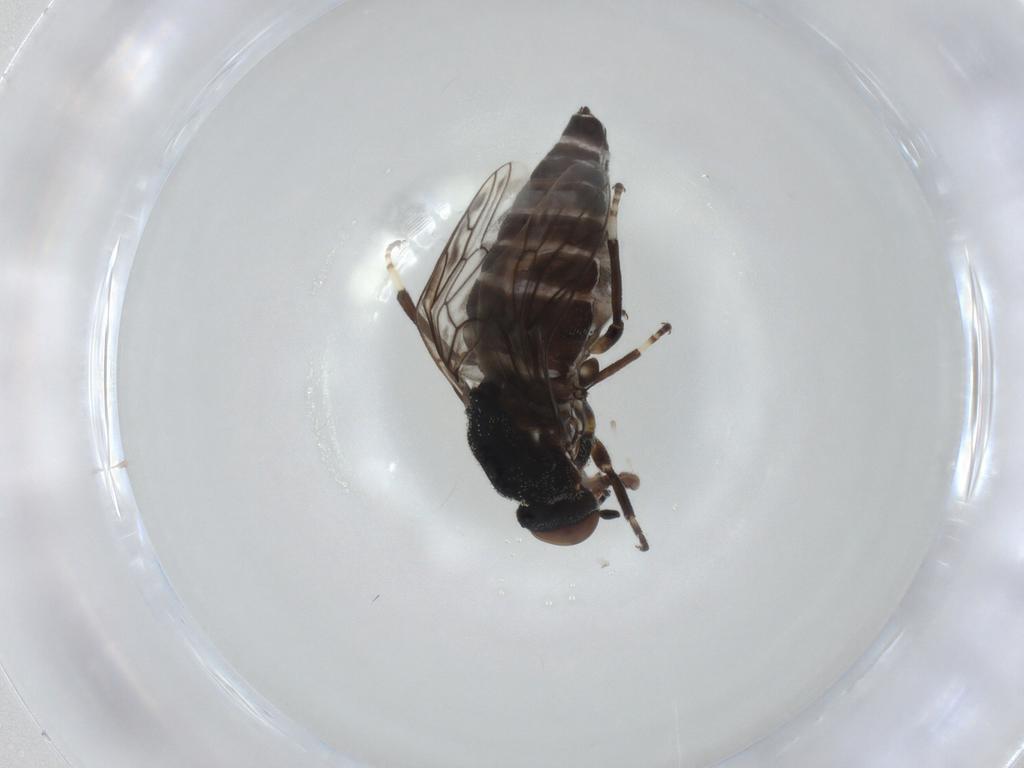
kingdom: Animalia
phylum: Arthropoda
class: Insecta
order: Diptera
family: Scenopinidae
